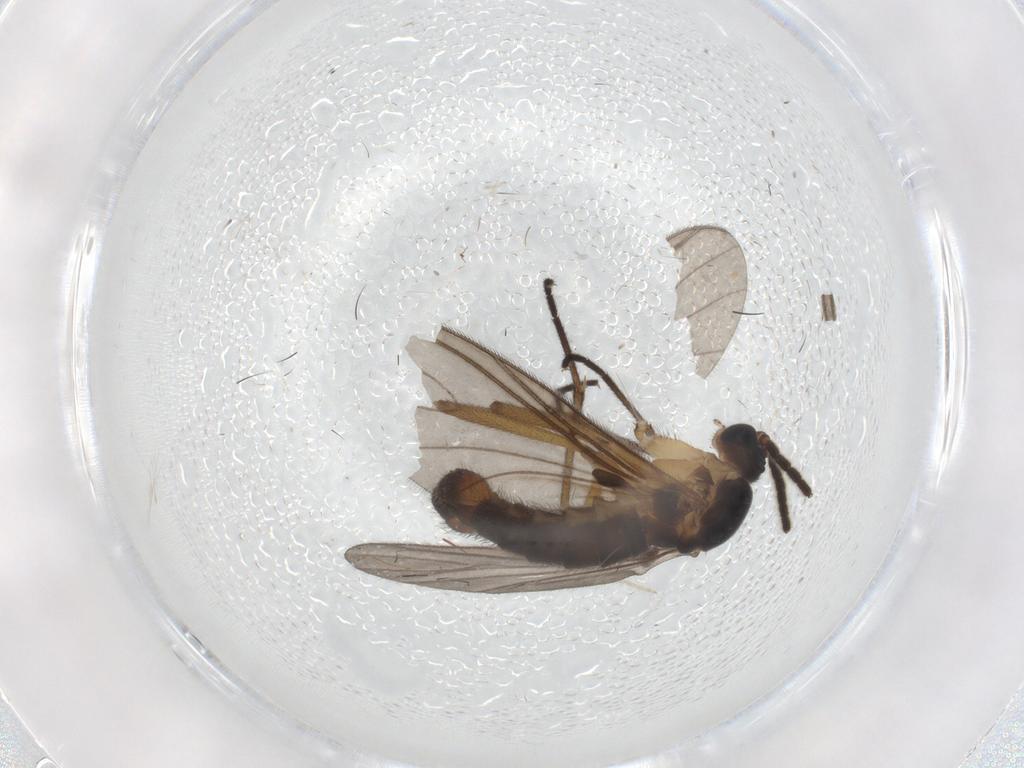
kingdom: Animalia
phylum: Arthropoda
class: Insecta
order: Diptera
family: Sciaridae
